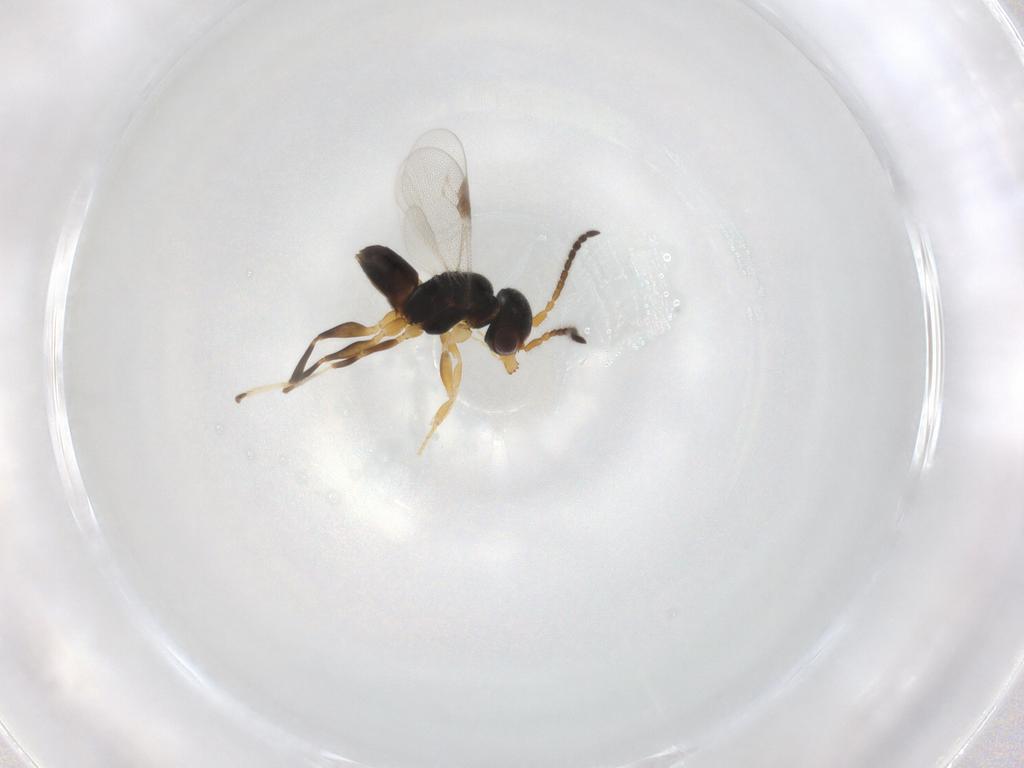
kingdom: Animalia
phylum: Arthropoda
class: Insecta
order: Hymenoptera
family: Dryinidae
